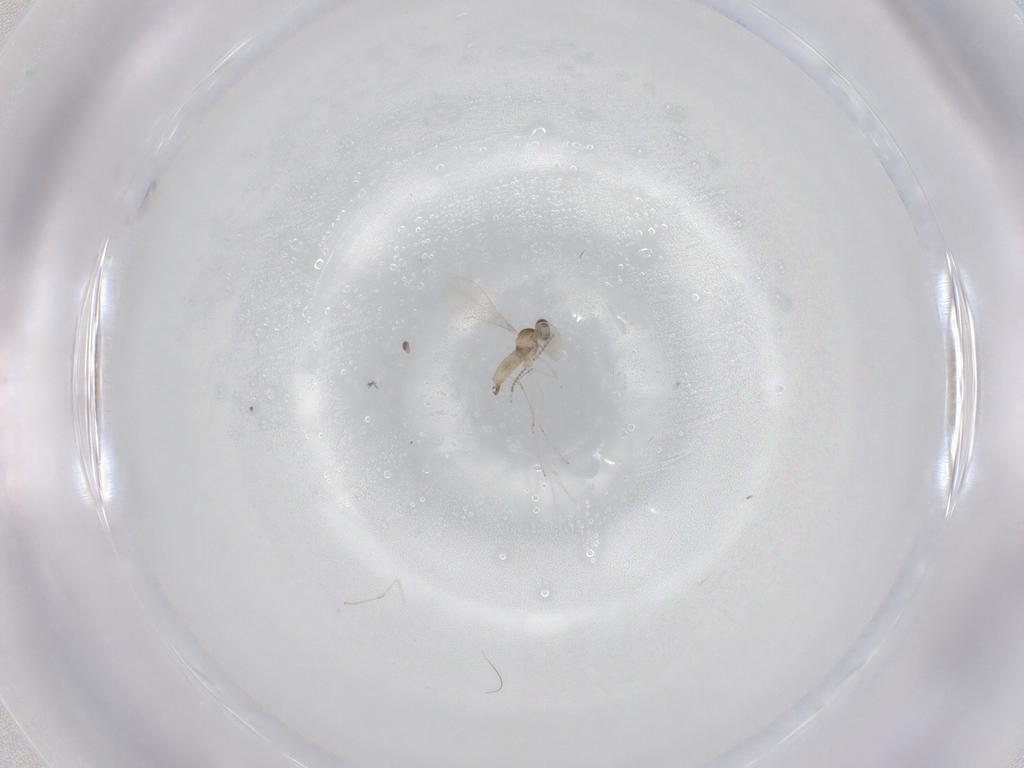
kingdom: Animalia
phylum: Arthropoda
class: Insecta
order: Diptera
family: Cecidomyiidae
